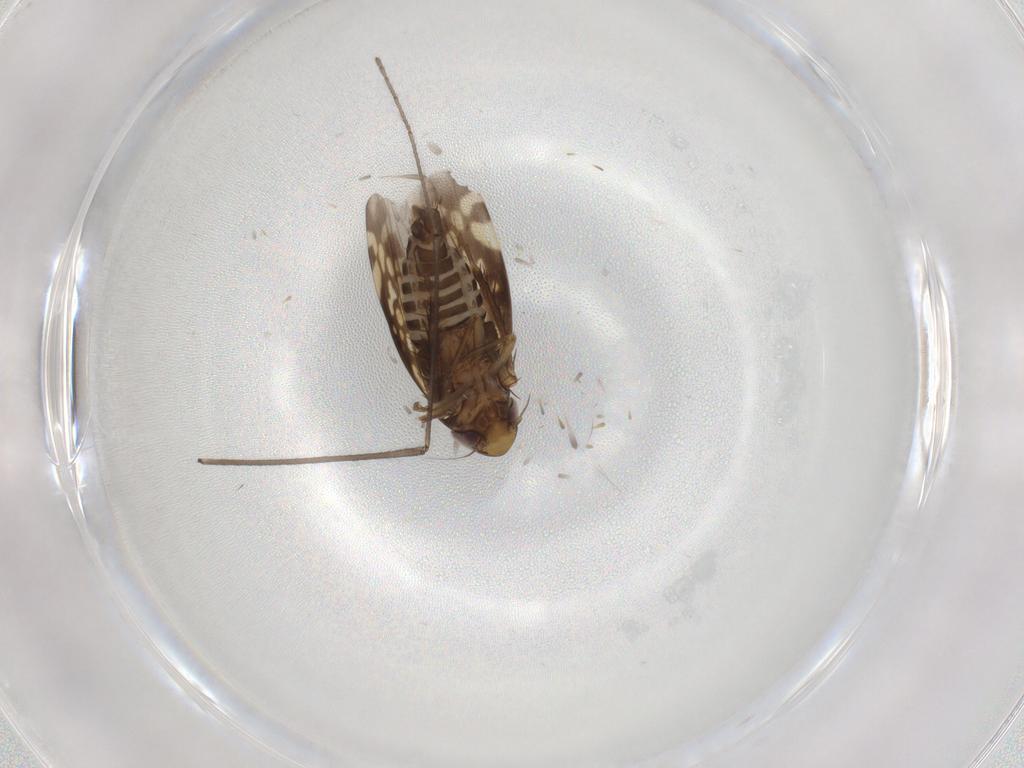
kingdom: Animalia
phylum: Arthropoda
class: Insecta
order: Hemiptera
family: Cicadellidae
